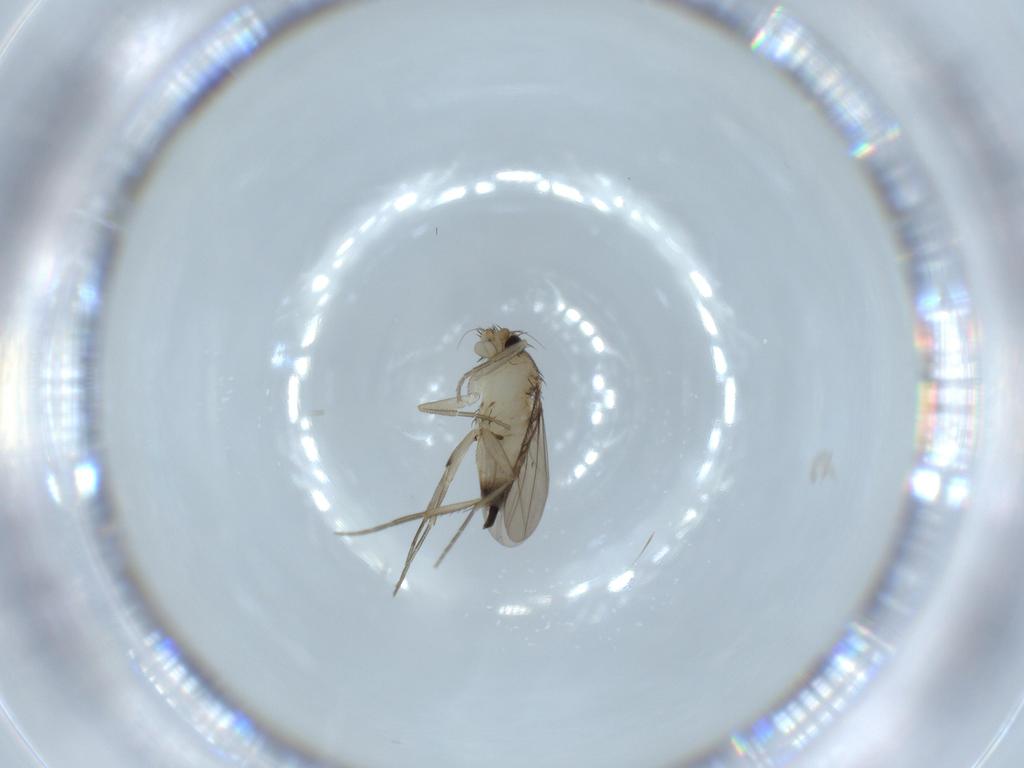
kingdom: Animalia
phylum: Arthropoda
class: Insecta
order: Diptera
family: Phoridae
